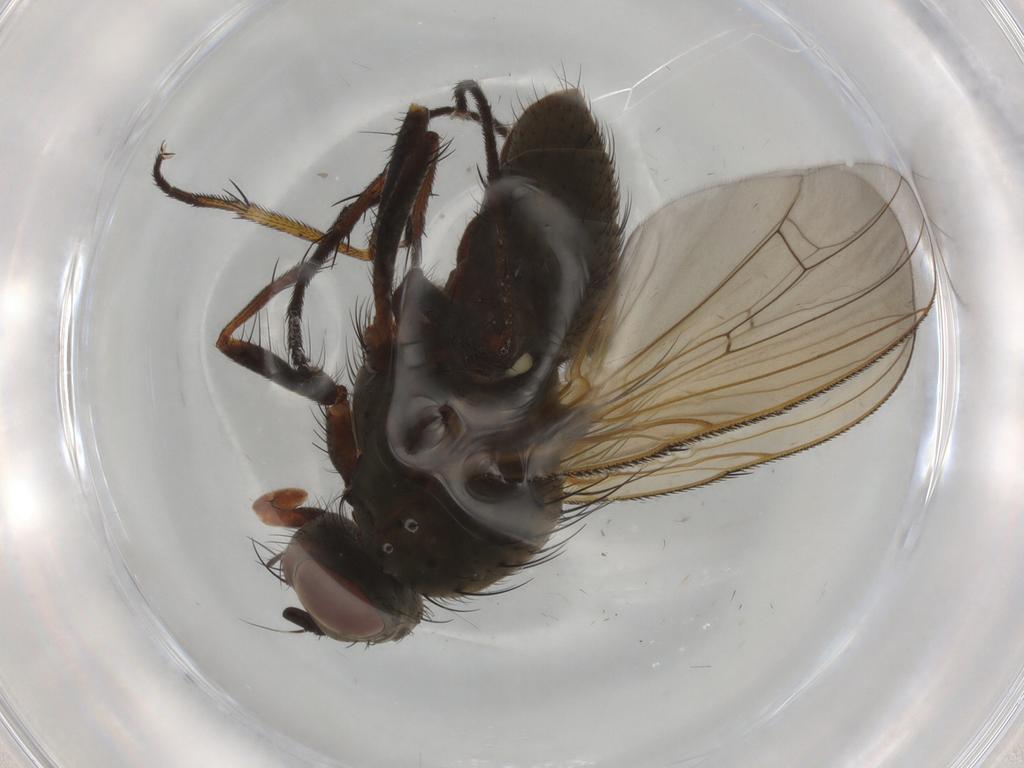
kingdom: Animalia
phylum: Arthropoda
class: Insecta
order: Diptera
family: Anthomyiidae
